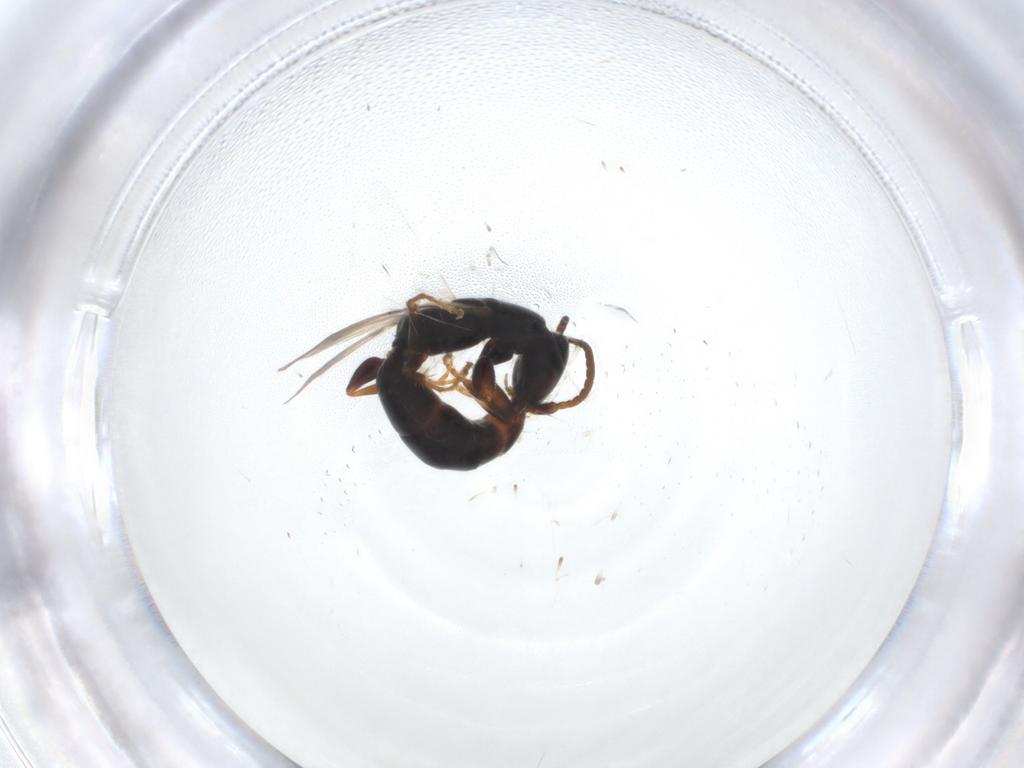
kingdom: Animalia
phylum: Arthropoda
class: Insecta
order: Hymenoptera
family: Bethylidae
